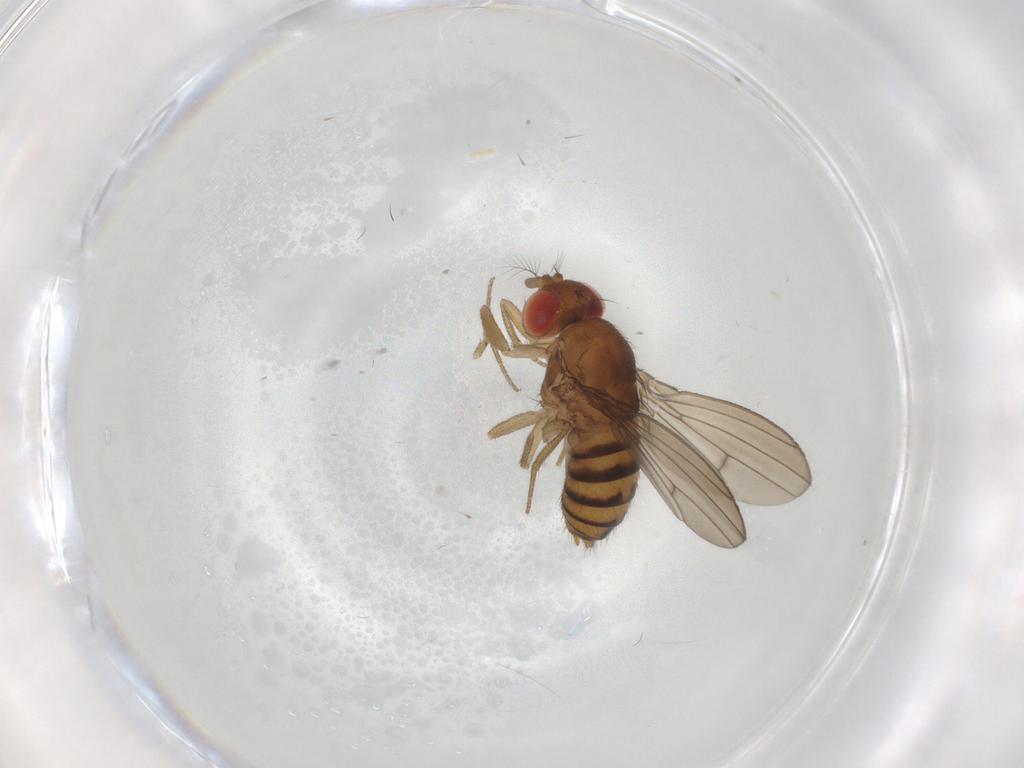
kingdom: Animalia
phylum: Arthropoda
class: Insecta
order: Diptera
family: Drosophilidae
